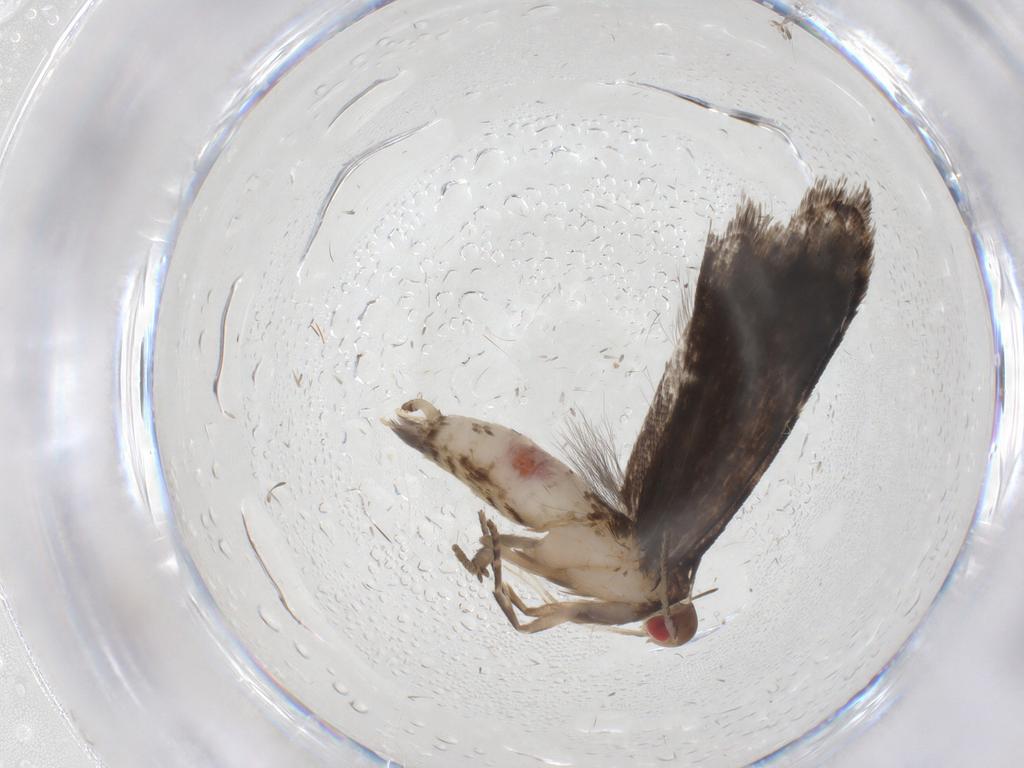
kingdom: Animalia
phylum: Arthropoda
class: Insecta
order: Lepidoptera
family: Gelechiidae
